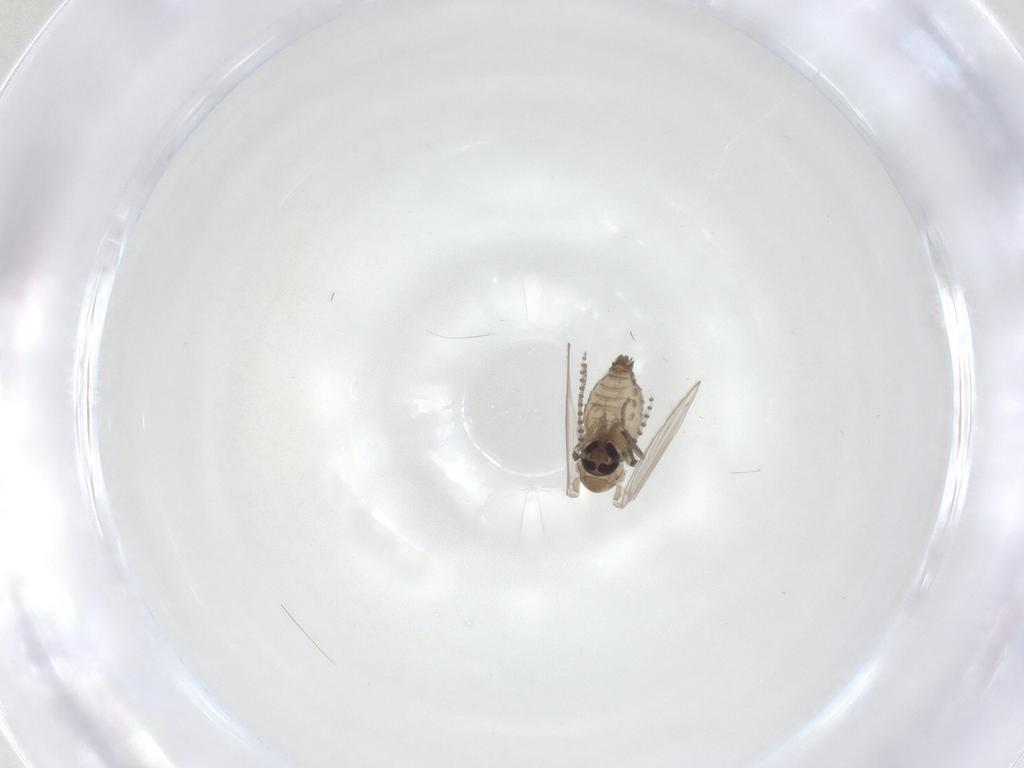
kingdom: Animalia
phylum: Arthropoda
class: Insecta
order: Diptera
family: Psychodidae
